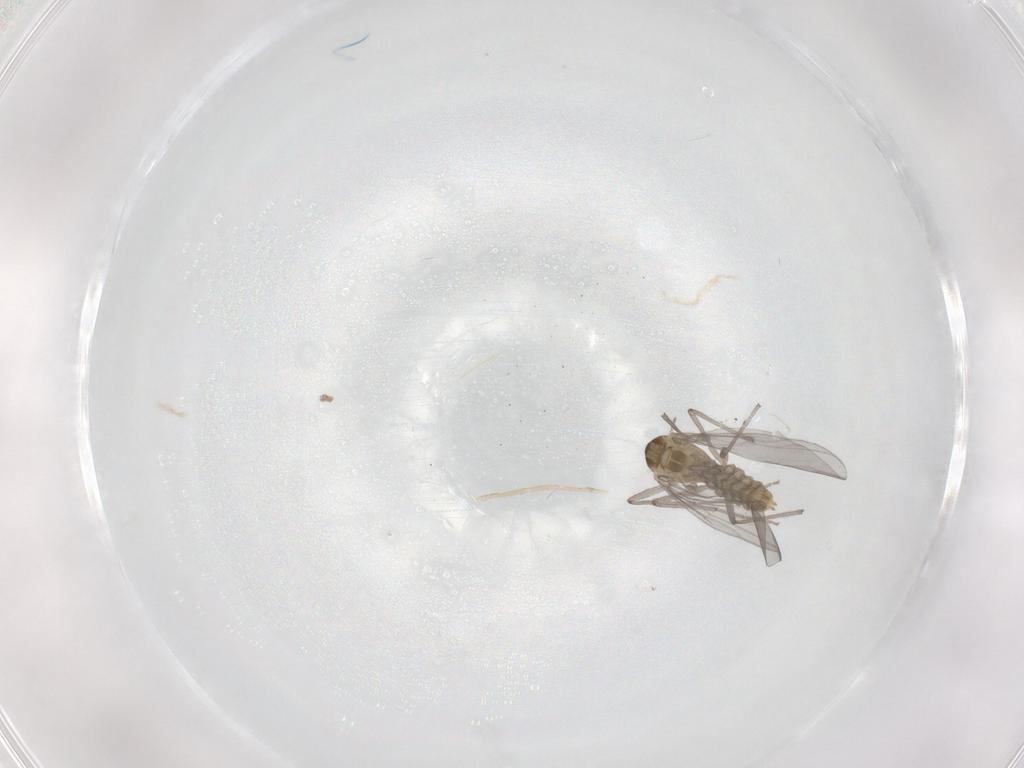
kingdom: Animalia
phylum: Arthropoda
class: Insecta
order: Diptera
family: Chironomidae
